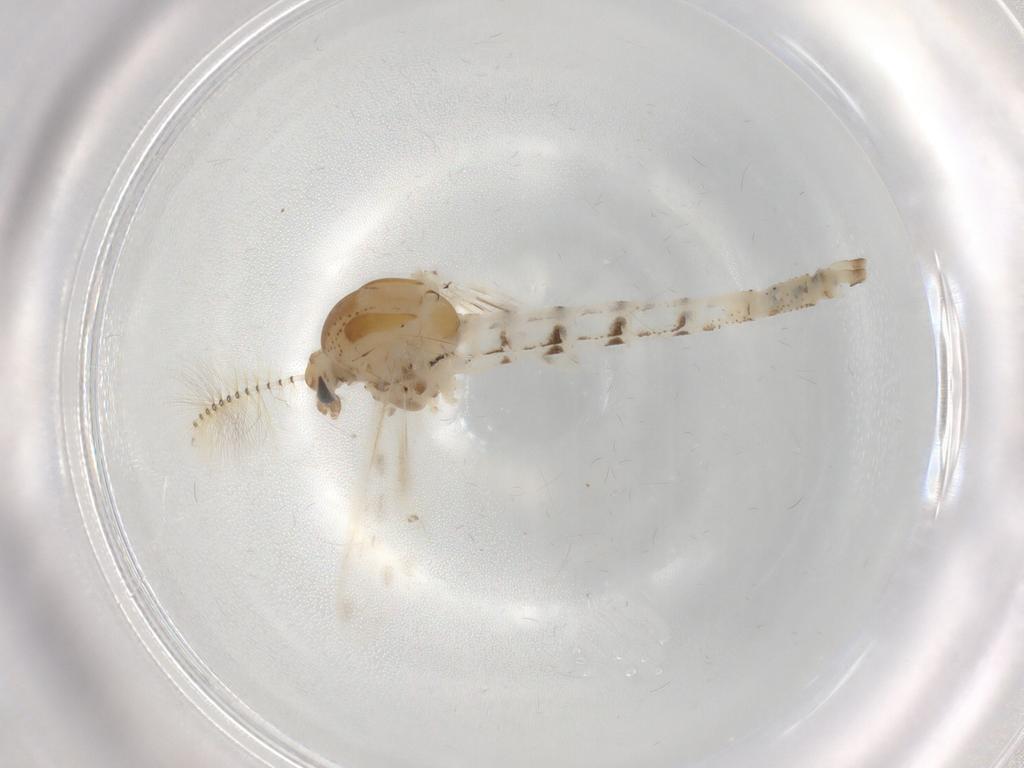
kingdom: Animalia
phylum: Arthropoda
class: Insecta
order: Diptera
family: Chaoboridae
